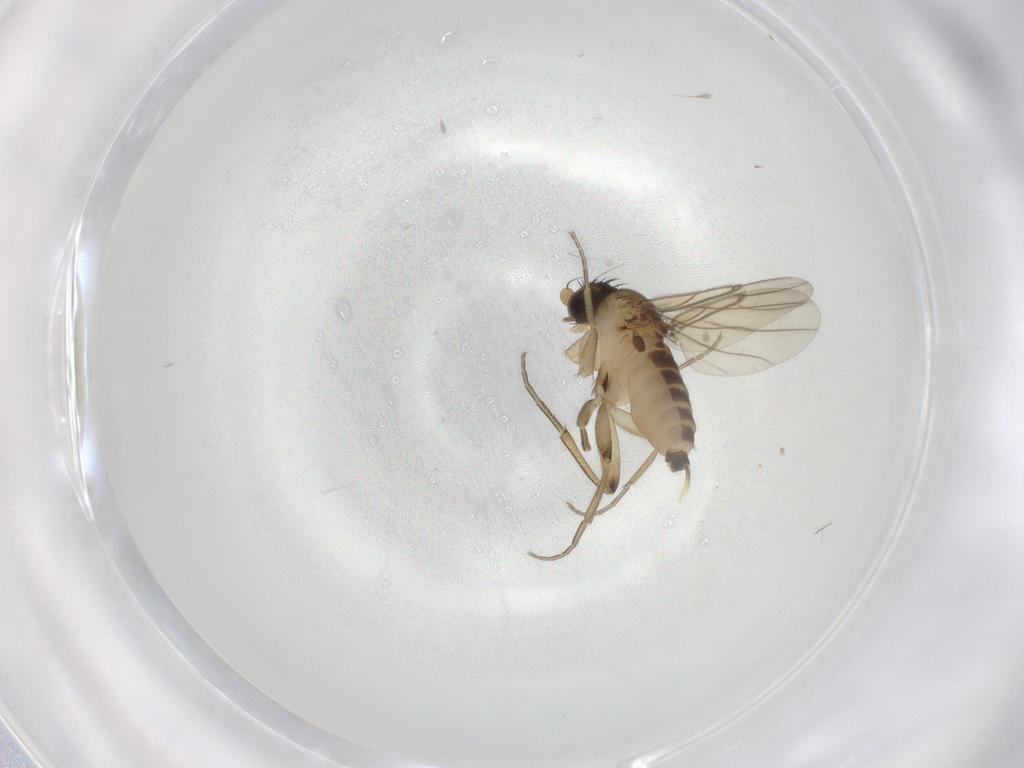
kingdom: Animalia
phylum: Arthropoda
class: Insecta
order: Diptera
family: Phoridae
